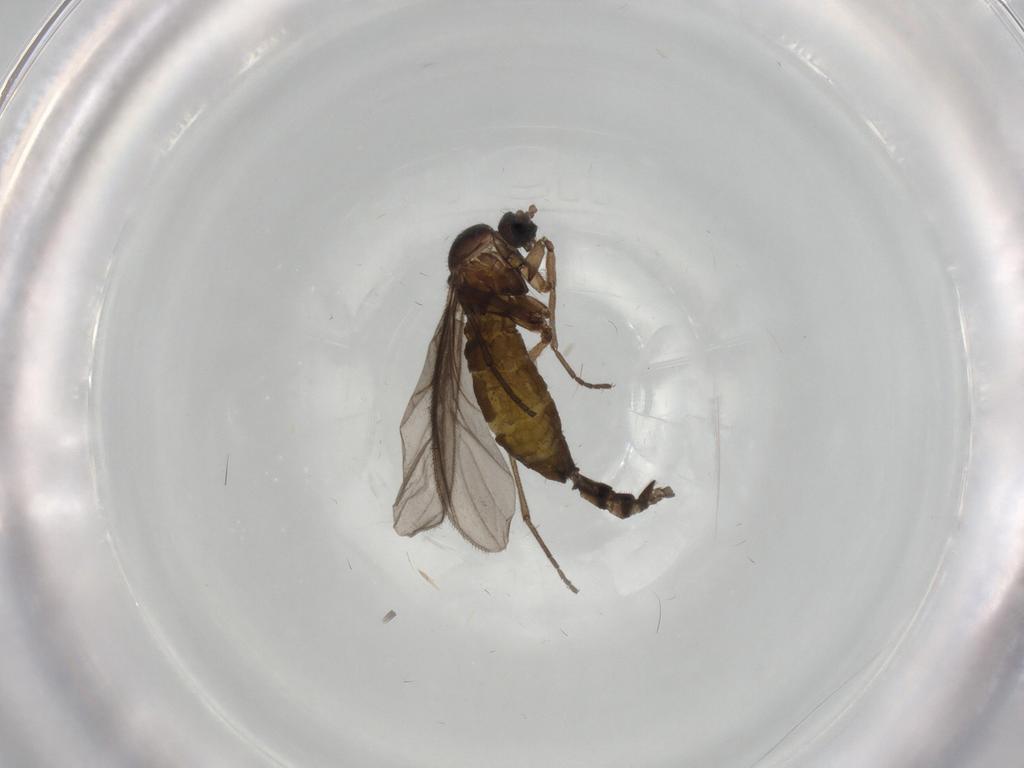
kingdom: Animalia
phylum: Arthropoda
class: Insecta
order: Diptera
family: Sciaridae
